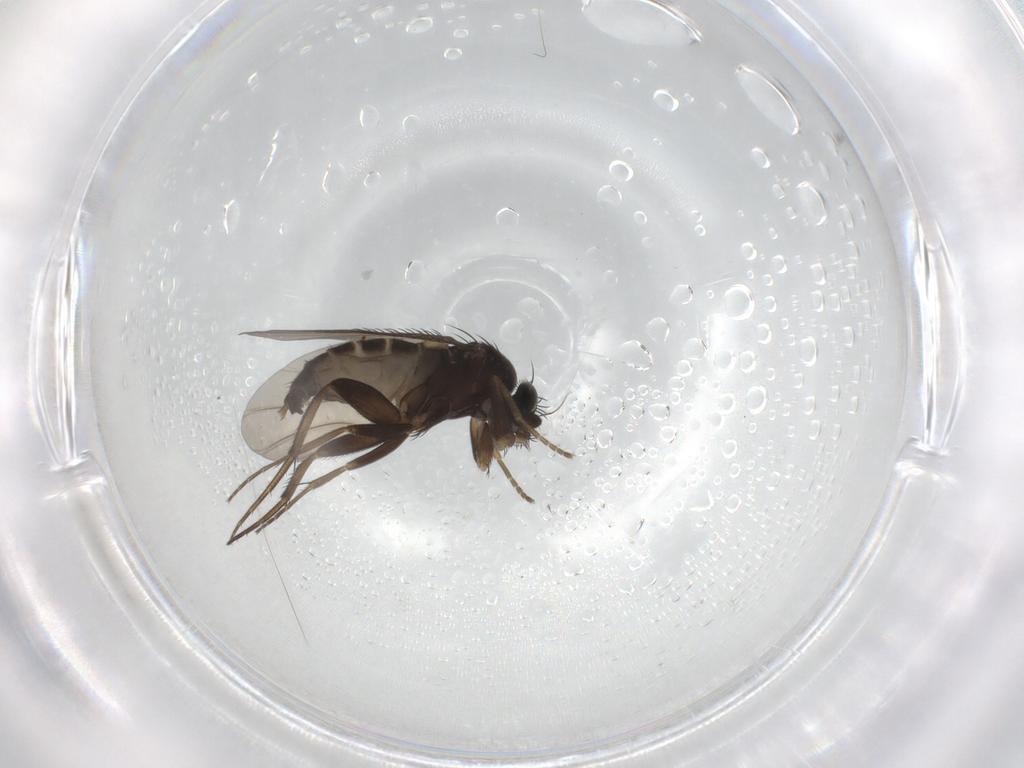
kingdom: Animalia
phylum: Arthropoda
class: Insecta
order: Diptera
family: Phoridae
